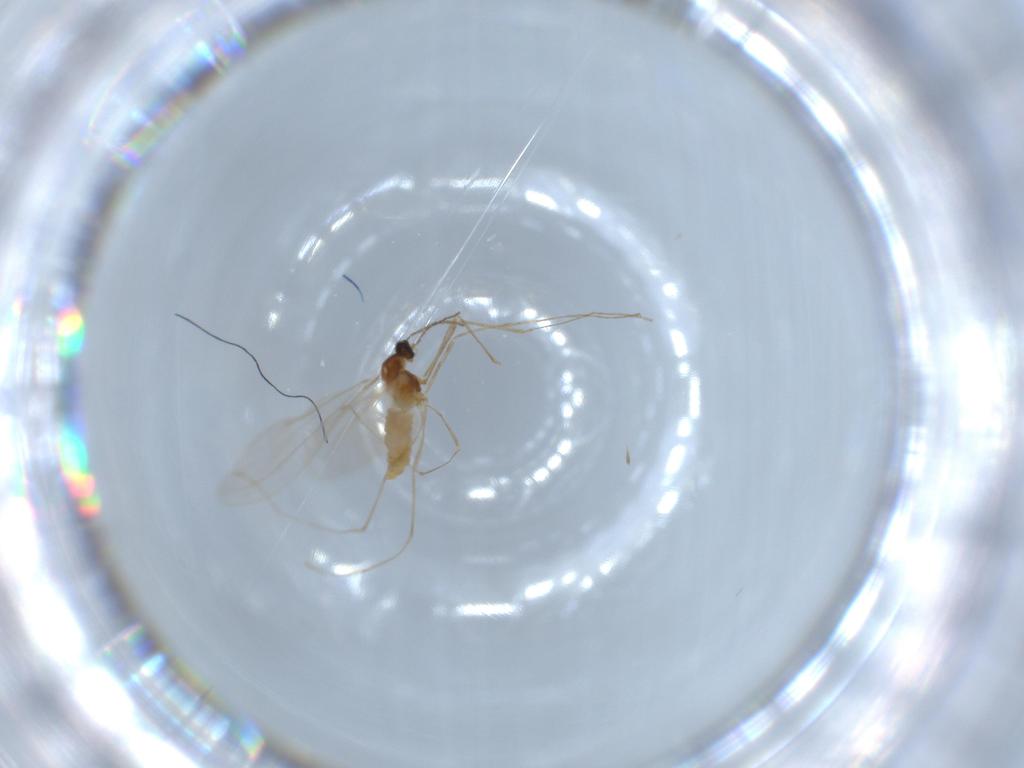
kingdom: Animalia
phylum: Arthropoda
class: Insecta
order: Diptera
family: Cecidomyiidae
